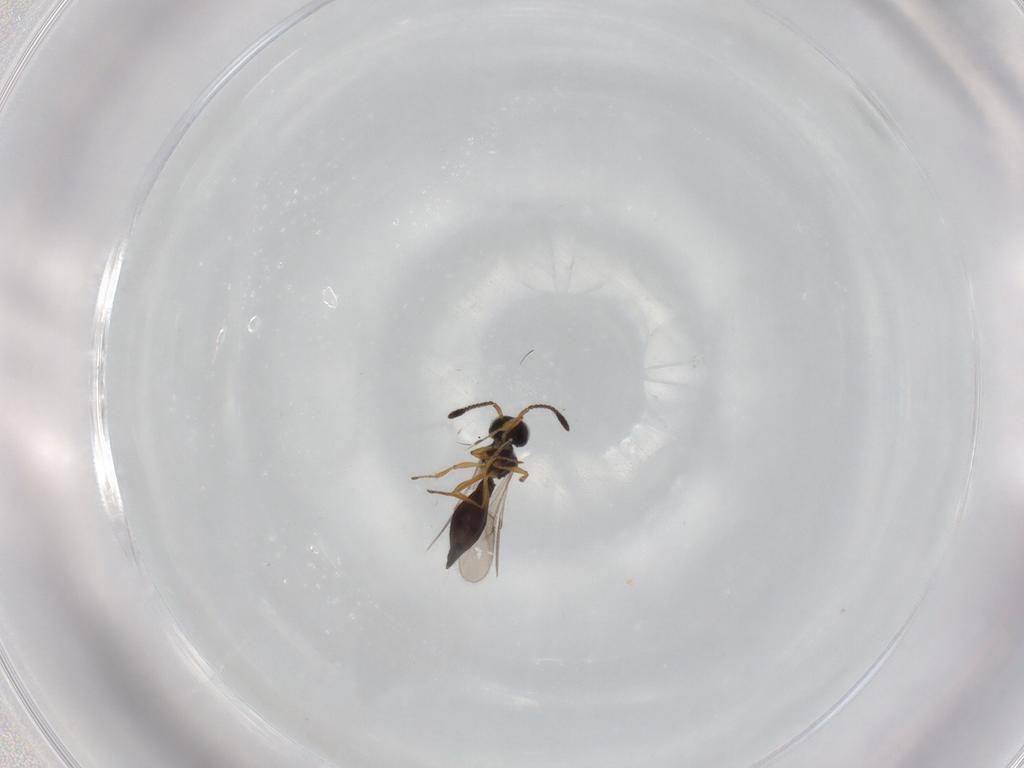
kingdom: Animalia
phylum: Arthropoda
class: Insecta
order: Hymenoptera
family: Scelionidae
